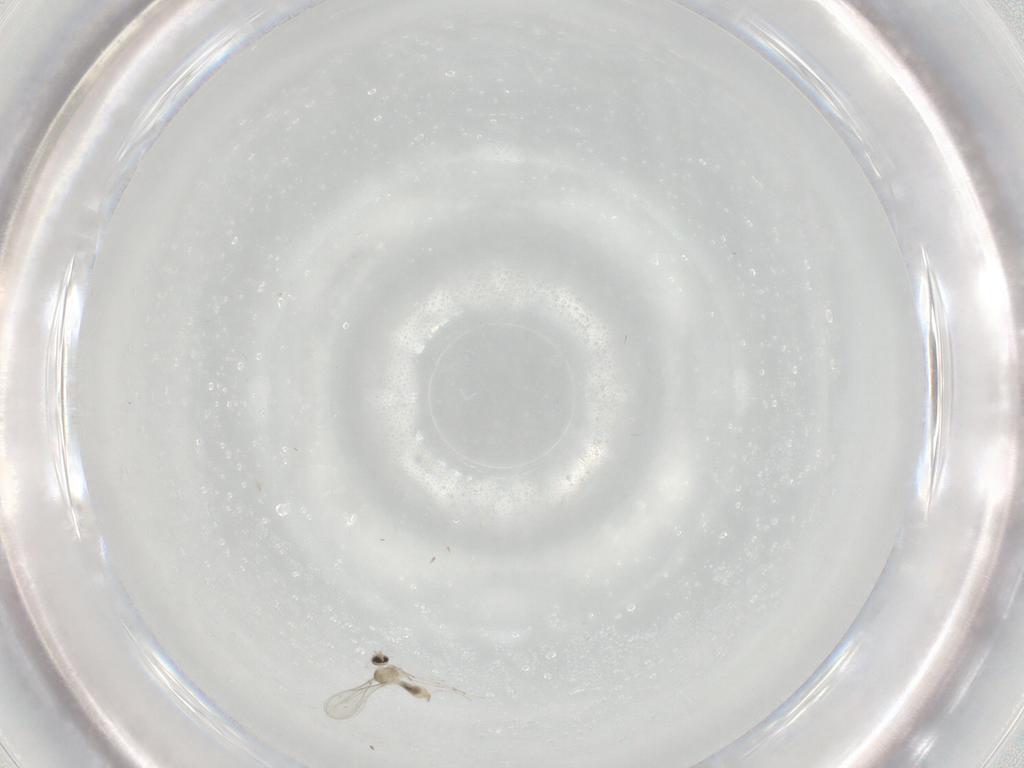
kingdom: Animalia
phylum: Arthropoda
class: Insecta
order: Diptera
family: Cecidomyiidae
